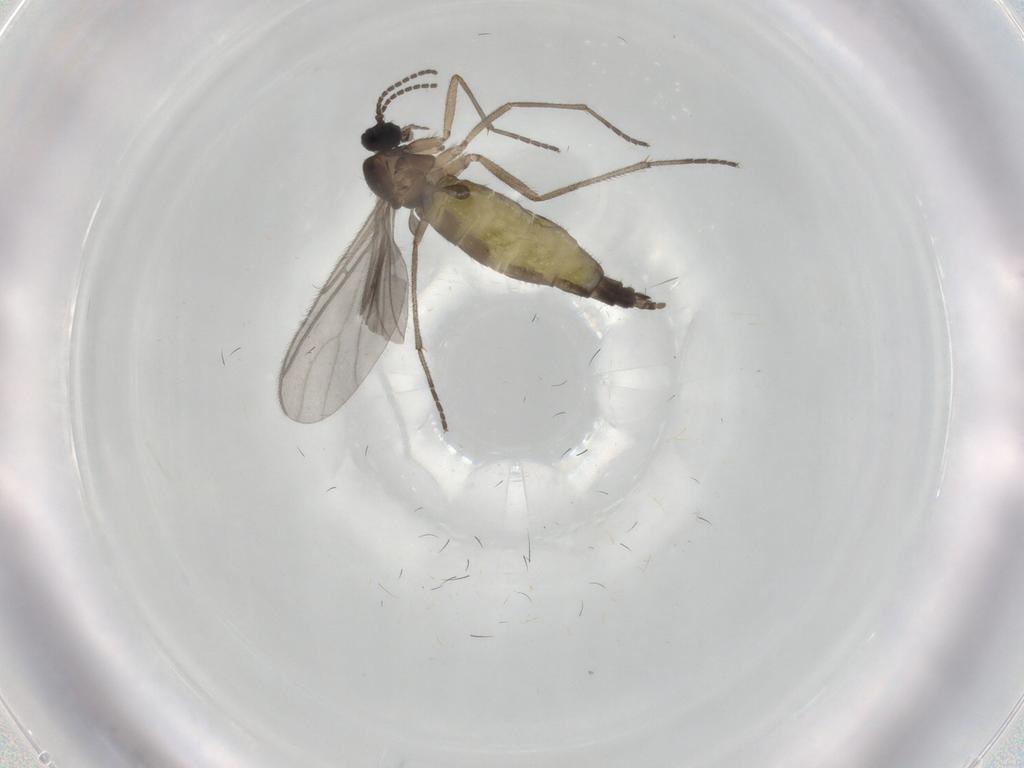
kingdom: Animalia
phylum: Arthropoda
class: Insecta
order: Diptera
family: Sciaridae
